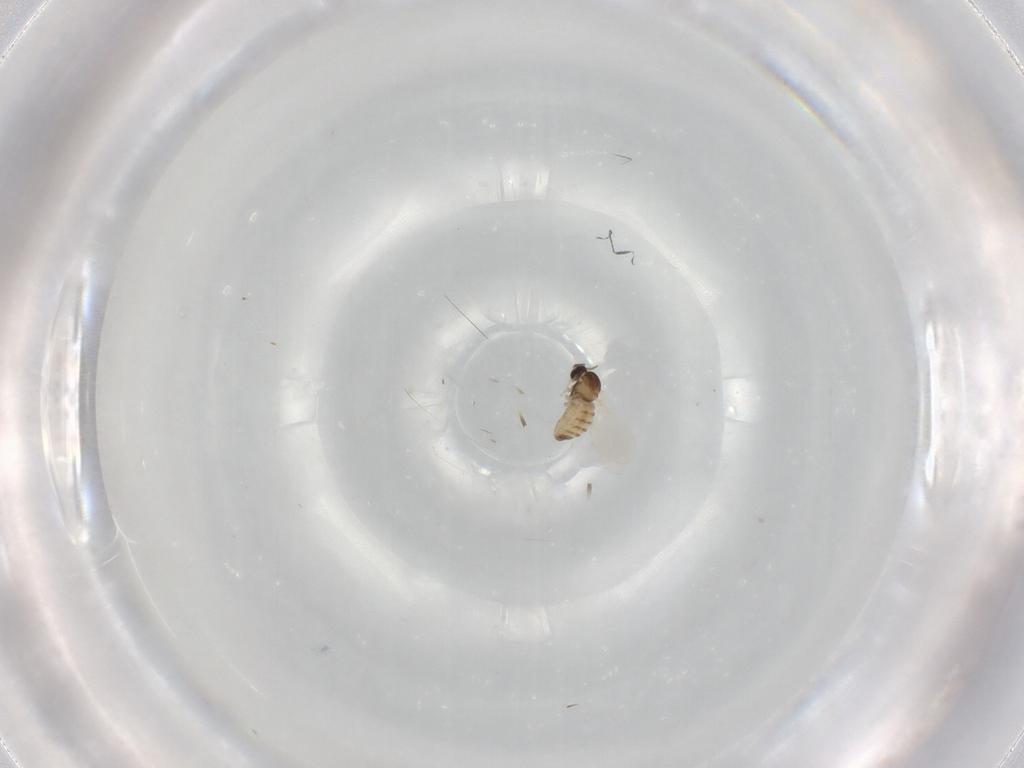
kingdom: Animalia
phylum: Arthropoda
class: Insecta
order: Diptera
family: Cecidomyiidae
